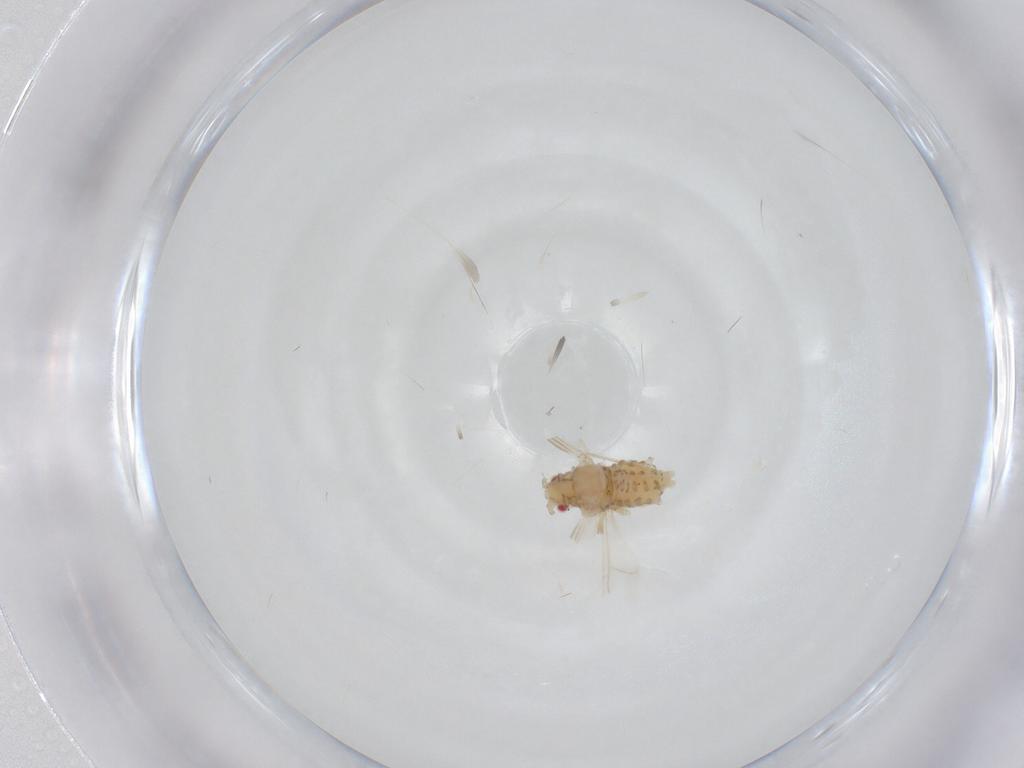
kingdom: Animalia
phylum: Arthropoda
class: Insecta
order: Hemiptera
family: Aphididae
